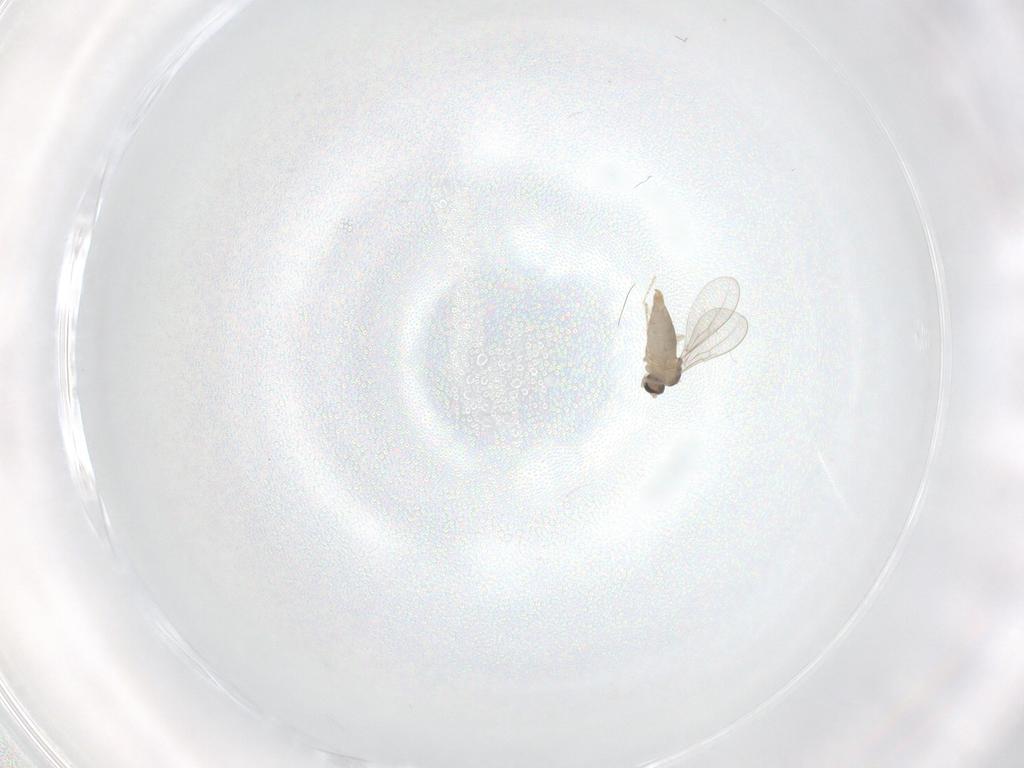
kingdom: Animalia
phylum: Arthropoda
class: Insecta
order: Diptera
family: Cecidomyiidae
